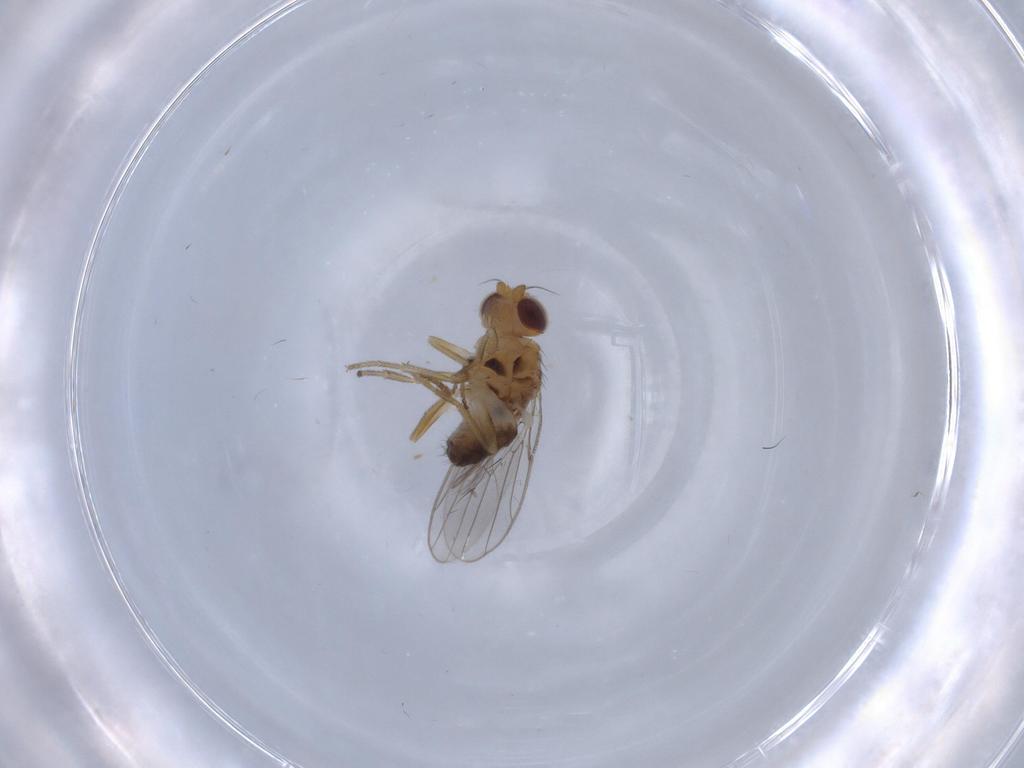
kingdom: Animalia
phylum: Arthropoda
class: Insecta
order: Diptera
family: Chloropidae
